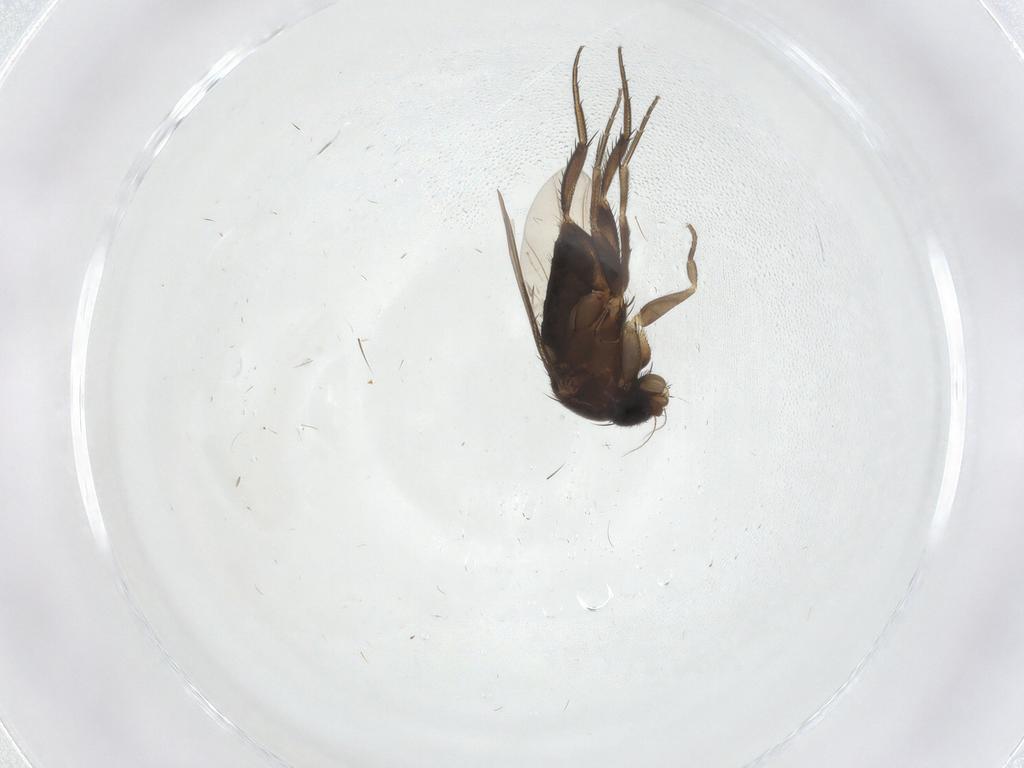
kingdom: Animalia
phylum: Arthropoda
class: Insecta
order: Diptera
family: Phoridae
